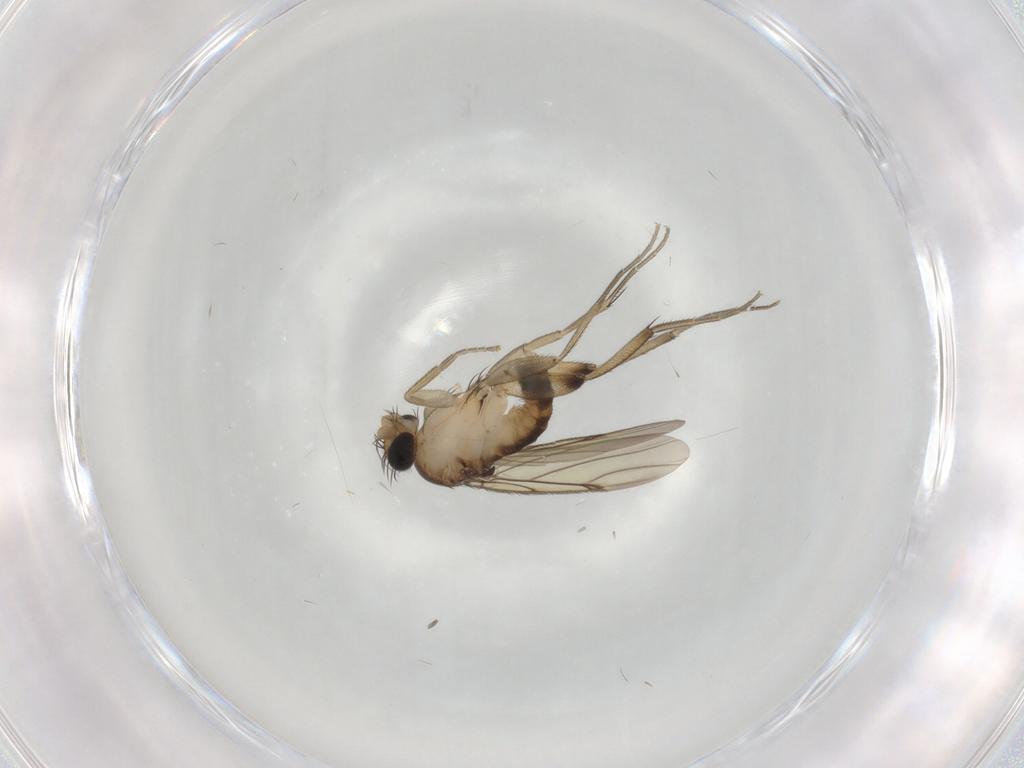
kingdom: Animalia
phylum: Arthropoda
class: Insecta
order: Diptera
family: Phoridae
